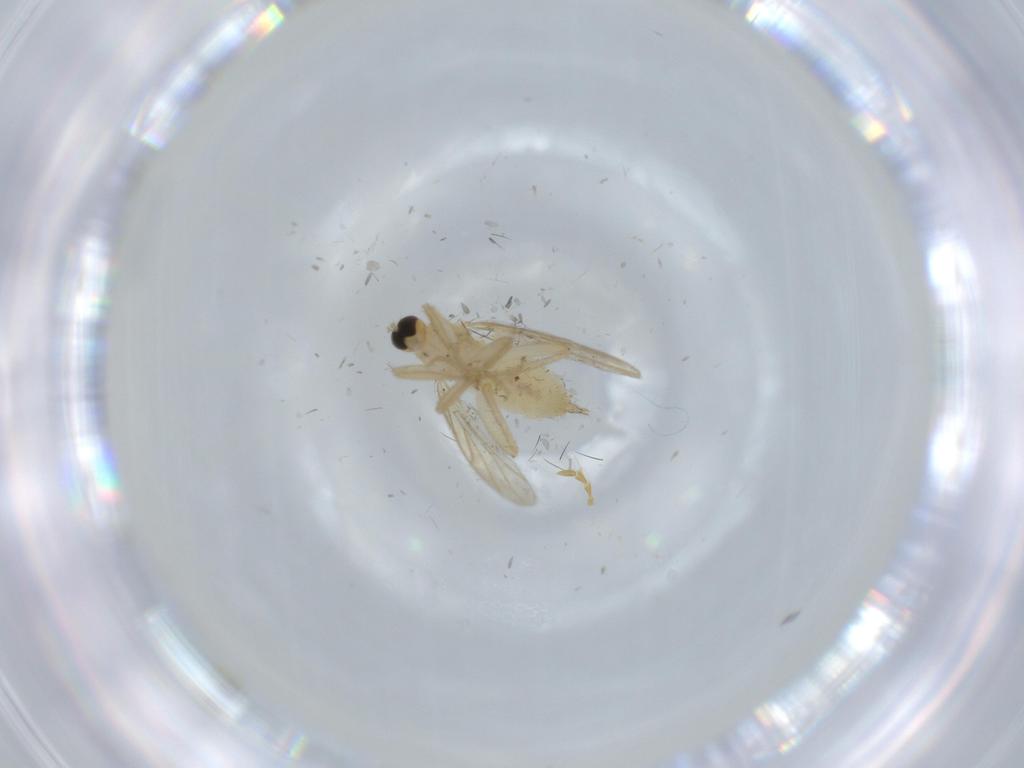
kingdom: Animalia
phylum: Arthropoda
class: Insecta
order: Diptera
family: Hybotidae
